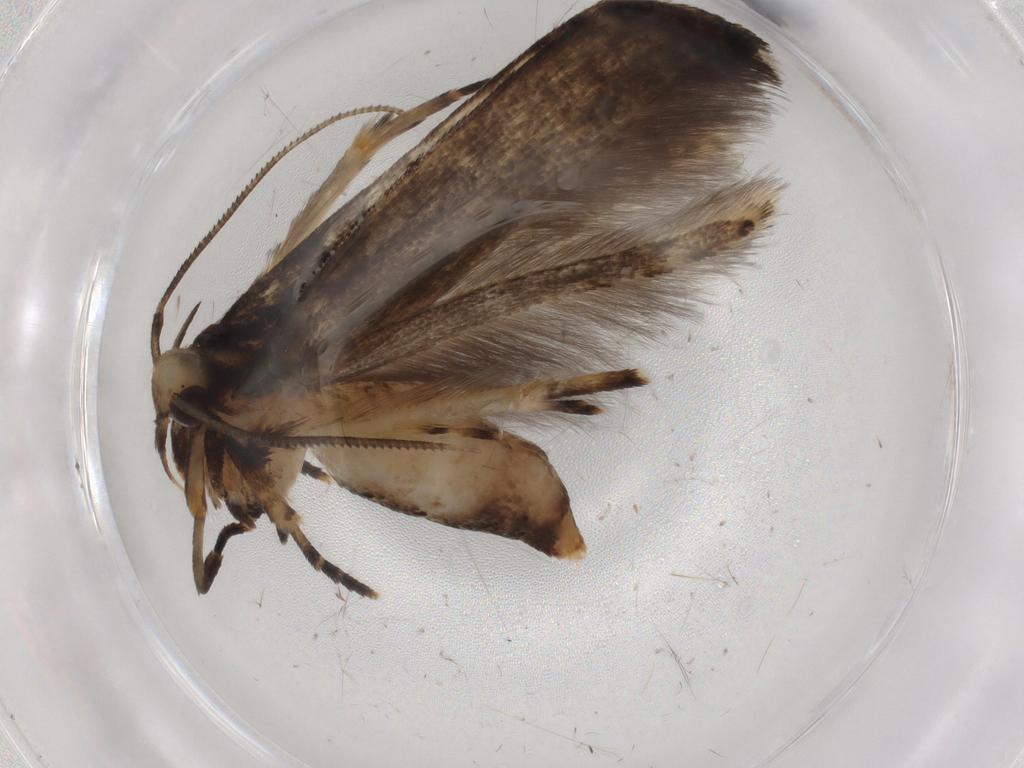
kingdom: Animalia
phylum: Arthropoda
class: Insecta
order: Lepidoptera
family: Cosmopterigidae
